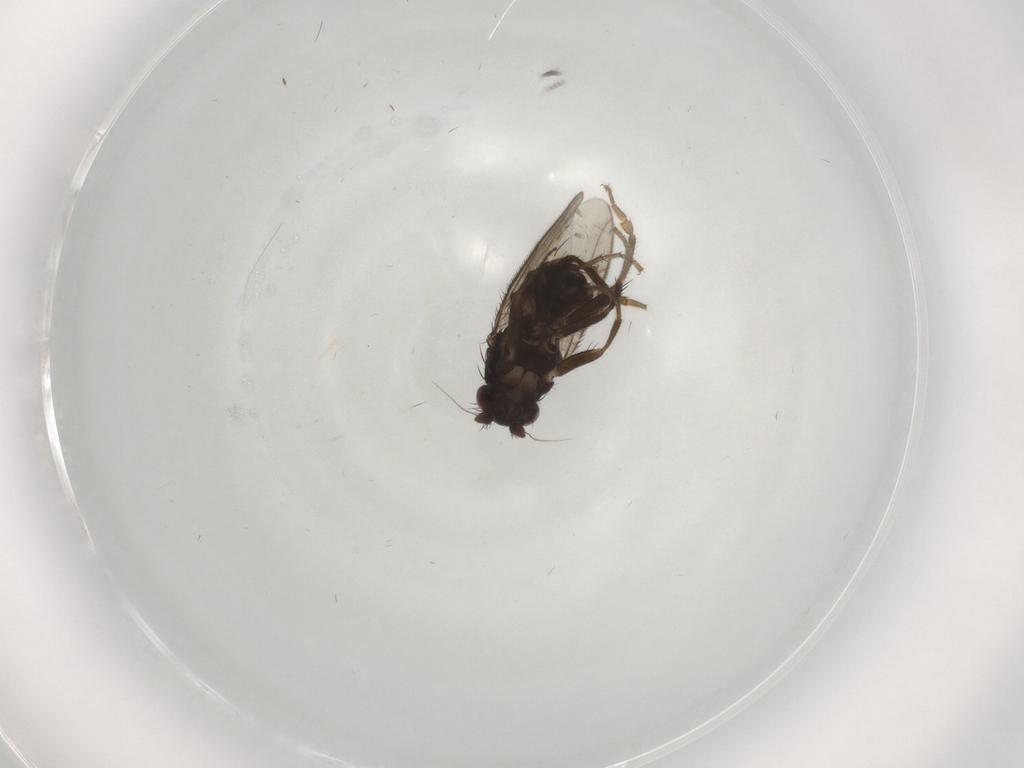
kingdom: Animalia
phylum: Arthropoda
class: Insecta
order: Diptera
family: Sphaeroceridae
